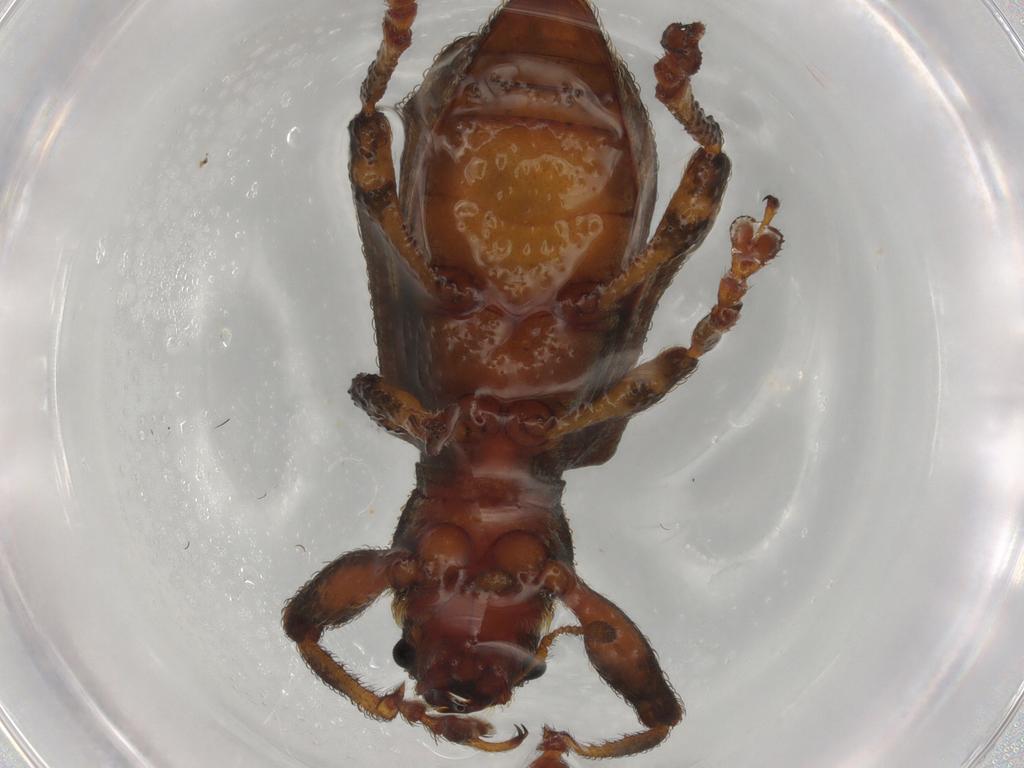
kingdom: Animalia
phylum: Arthropoda
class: Insecta
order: Coleoptera
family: Curculionidae
